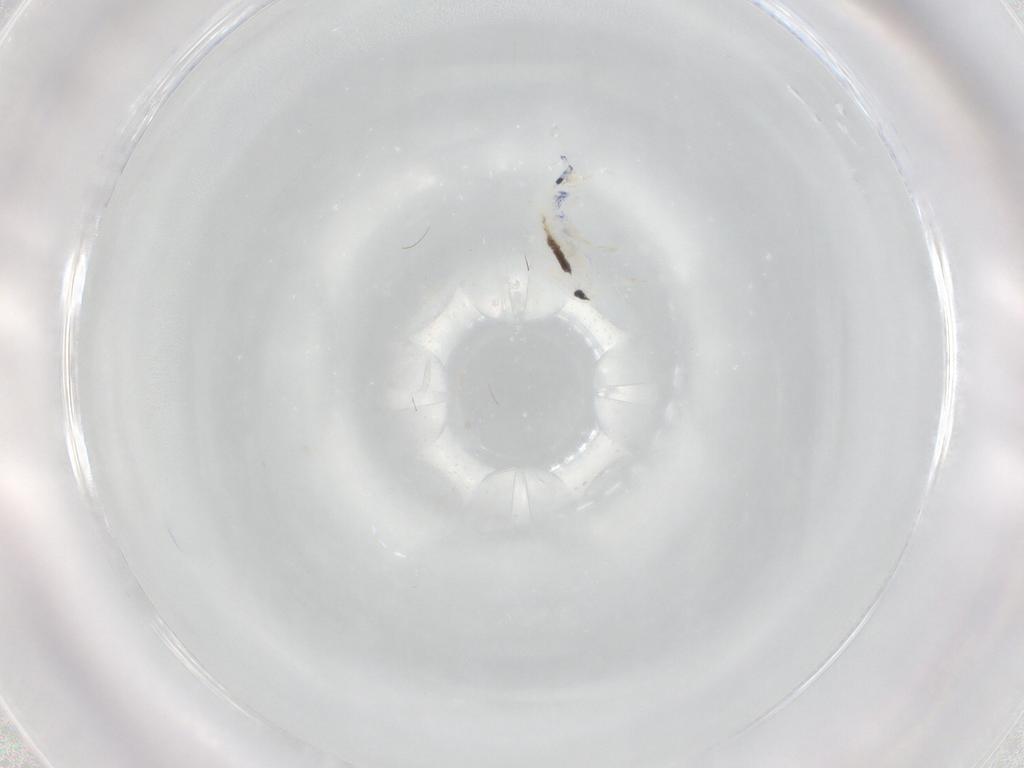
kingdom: Animalia
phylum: Arthropoda
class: Collembola
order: Entomobryomorpha
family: Entomobryidae
